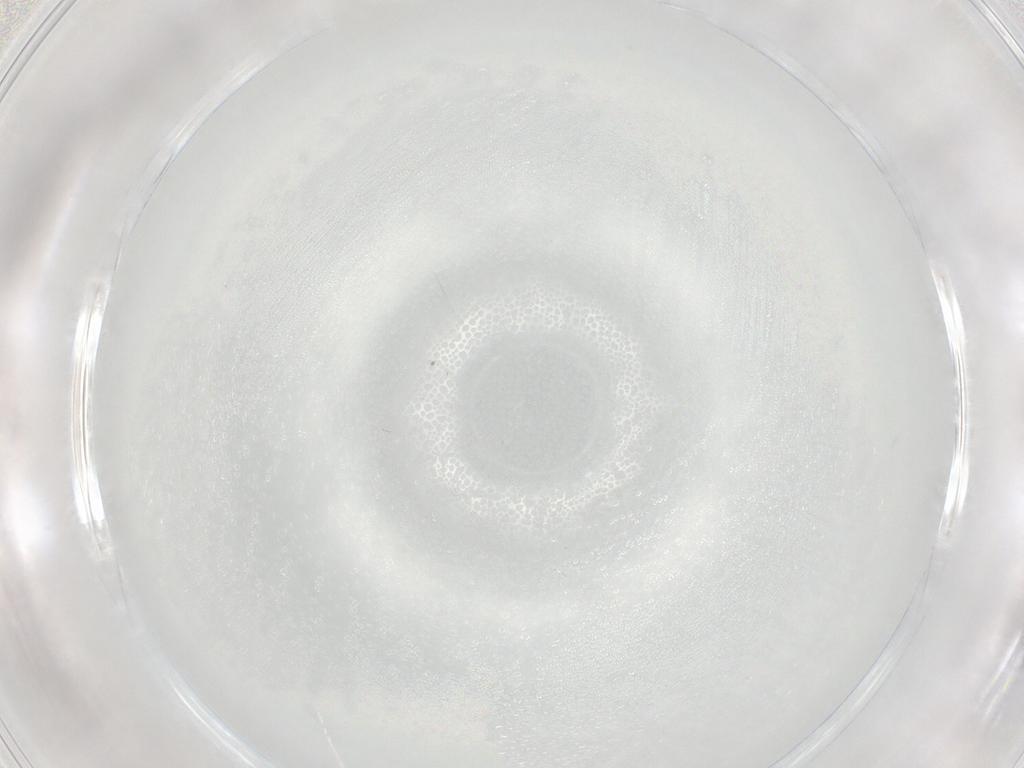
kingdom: Animalia
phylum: Arthropoda
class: Insecta
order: Diptera
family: Cecidomyiidae
